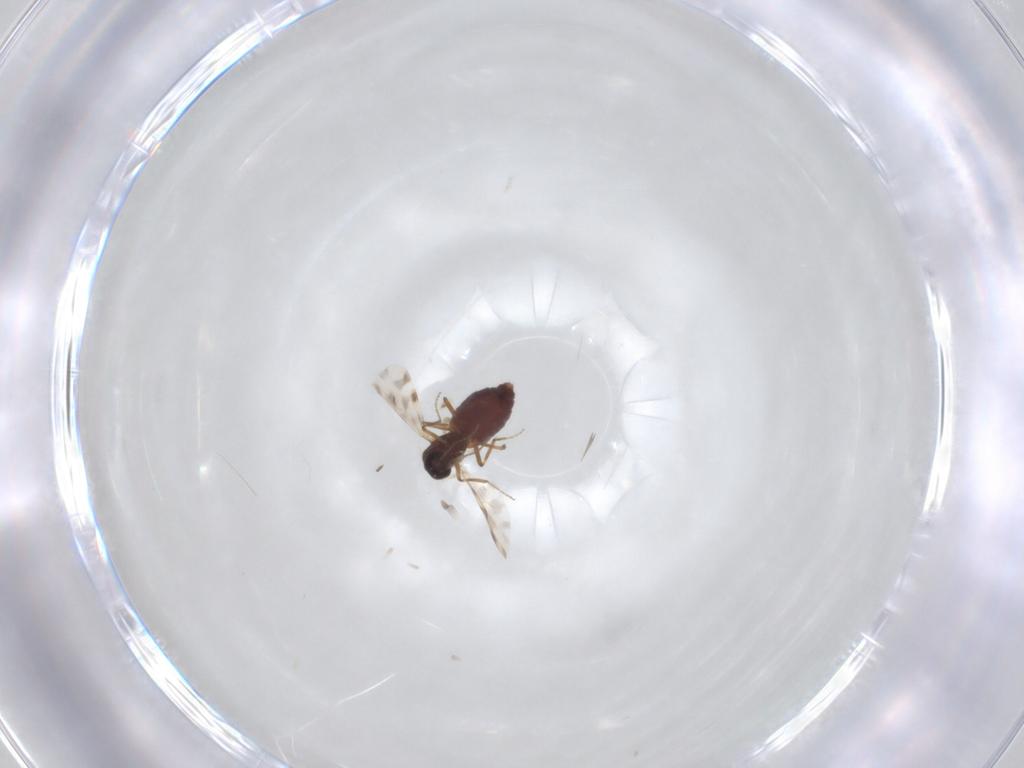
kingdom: Animalia
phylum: Arthropoda
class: Insecta
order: Diptera
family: Ceratopogonidae
